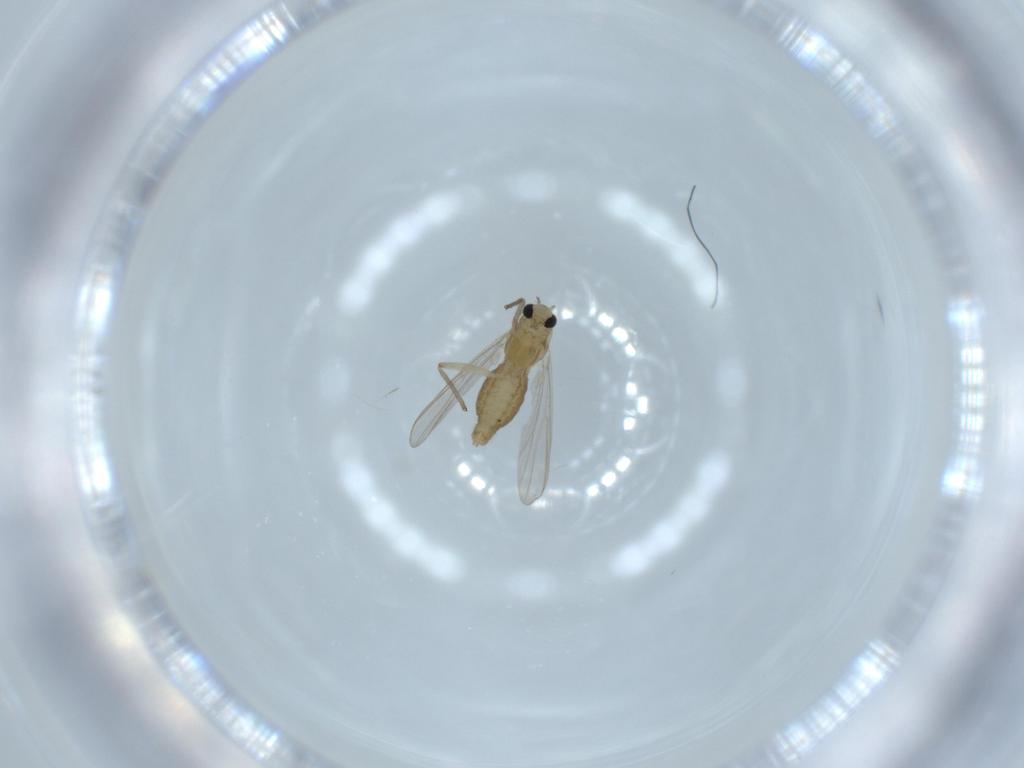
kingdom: Animalia
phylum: Arthropoda
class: Insecta
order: Diptera
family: Chironomidae
